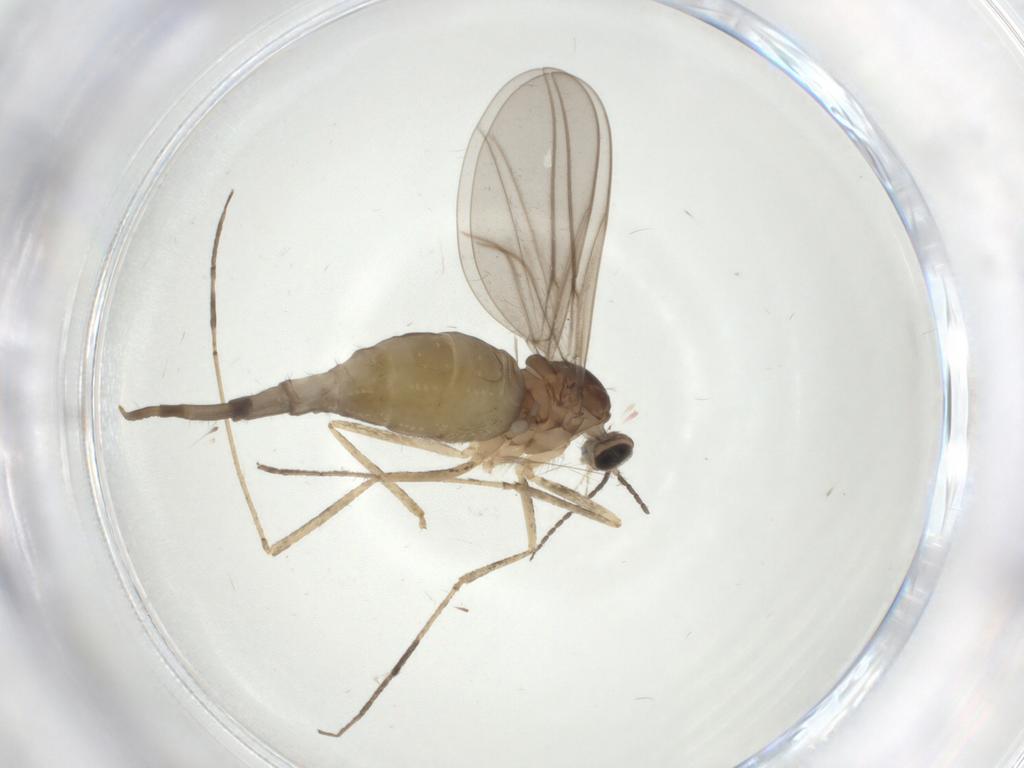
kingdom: Animalia
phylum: Arthropoda
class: Insecta
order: Diptera
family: Cecidomyiidae
